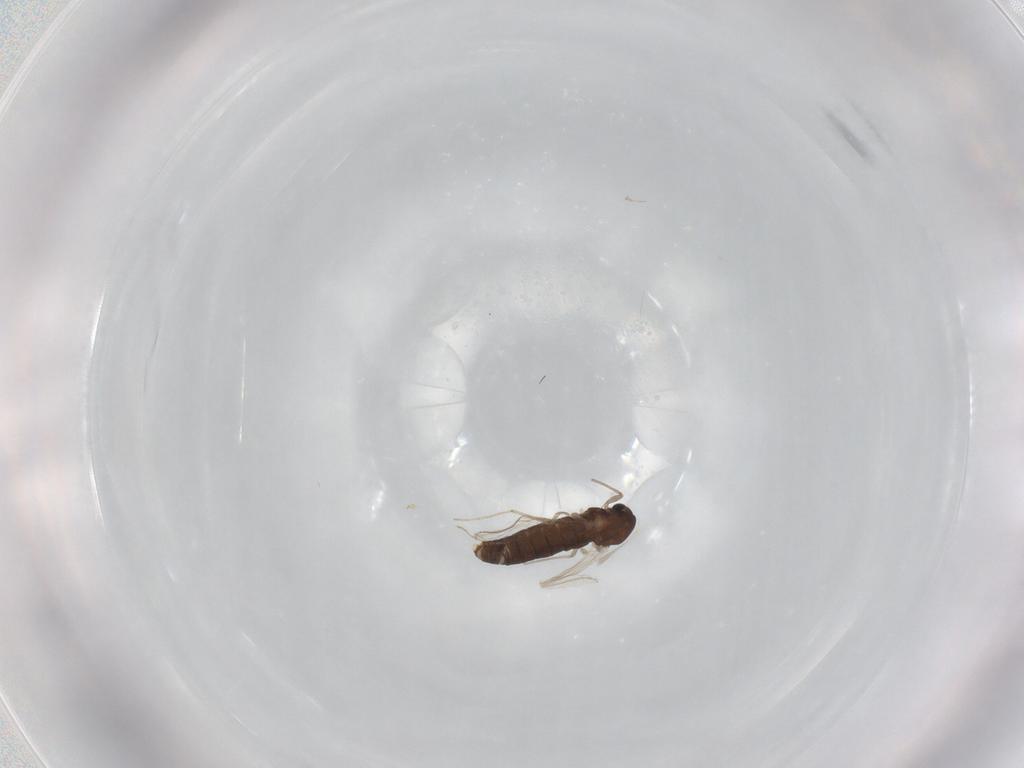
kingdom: Animalia
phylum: Arthropoda
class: Insecta
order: Diptera
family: Chironomidae
